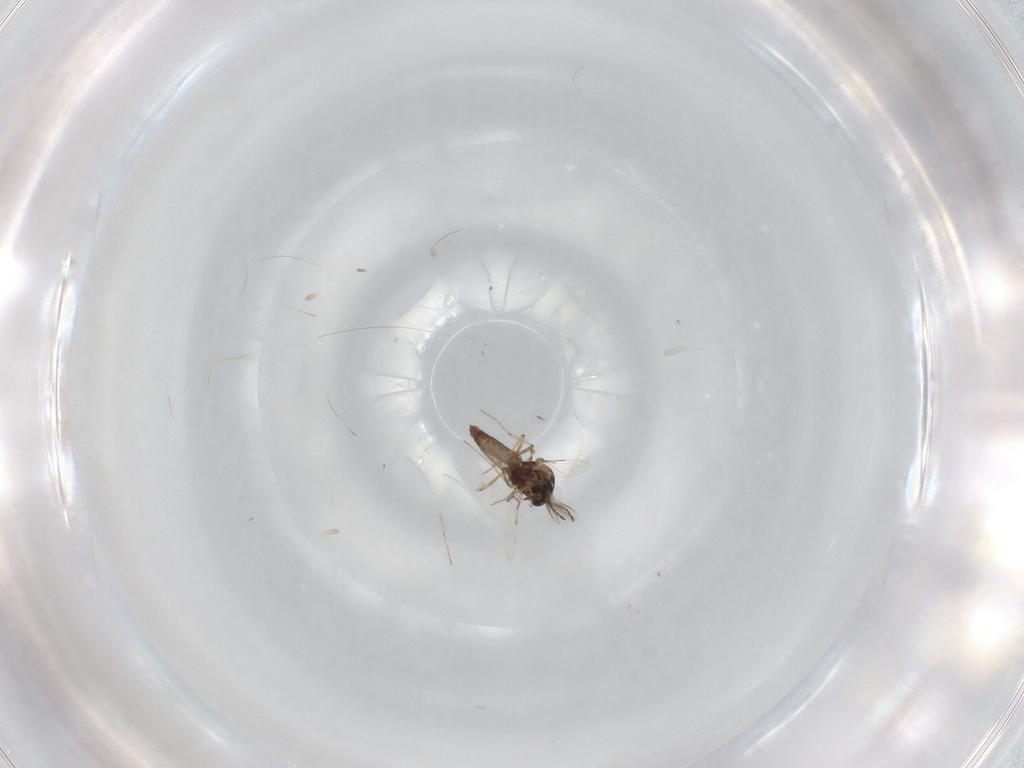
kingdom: Animalia
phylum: Arthropoda
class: Insecta
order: Diptera
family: Ceratopogonidae
